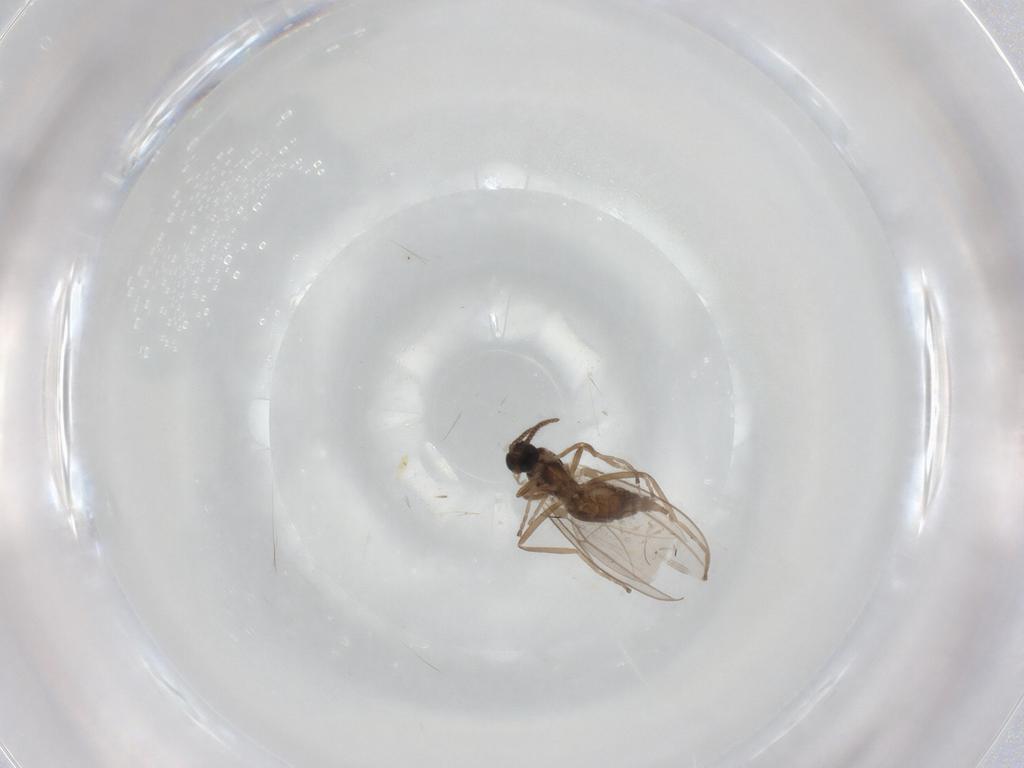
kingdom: Animalia
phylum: Arthropoda
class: Insecta
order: Diptera
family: Cecidomyiidae
